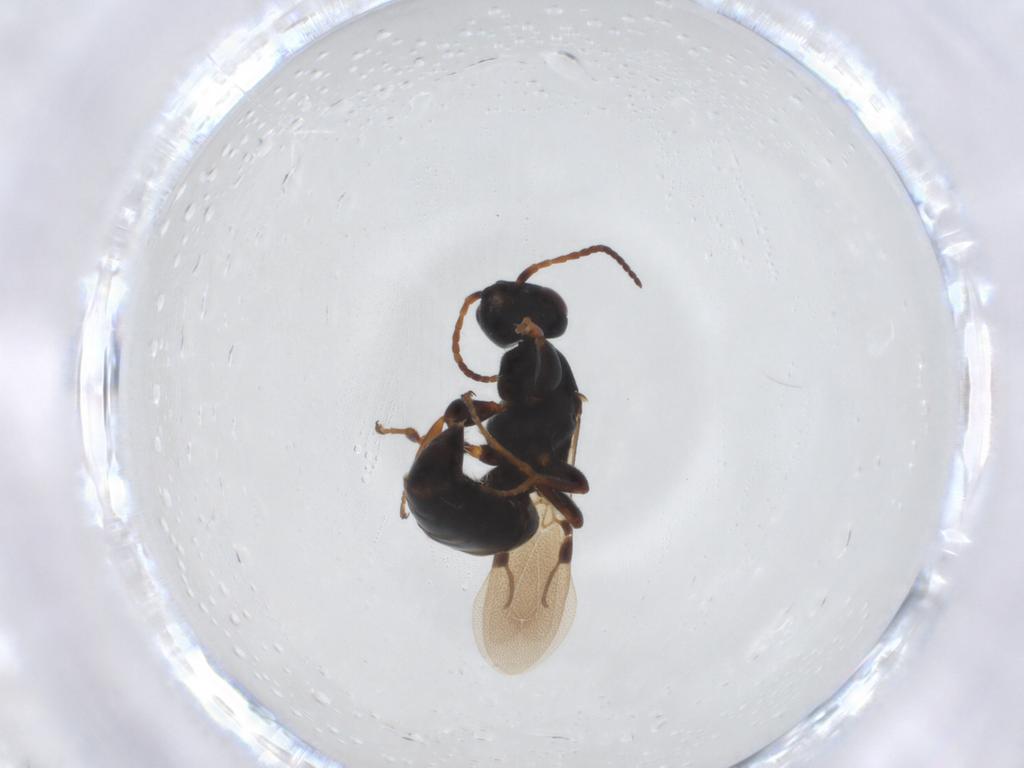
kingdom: Animalia
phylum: Arthropoda
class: Insecta
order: Hymenoptera
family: Bethylidae
